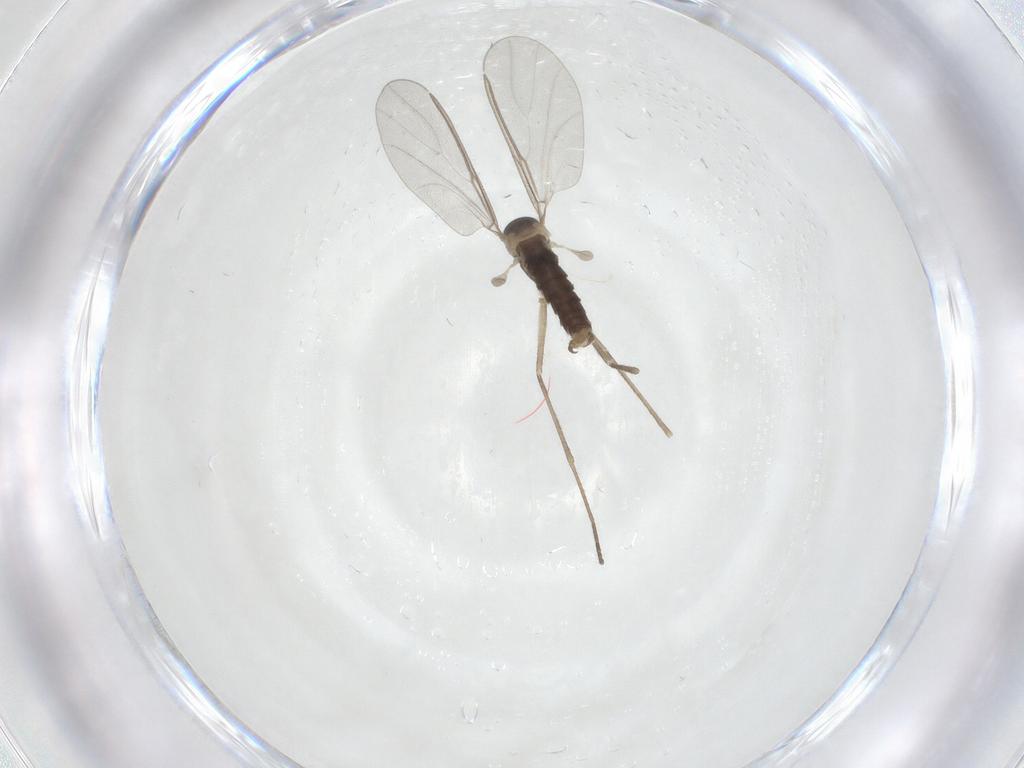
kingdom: Animalia
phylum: Arthropoda
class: Insecta
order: Diptera
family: Cecidomyiidae
